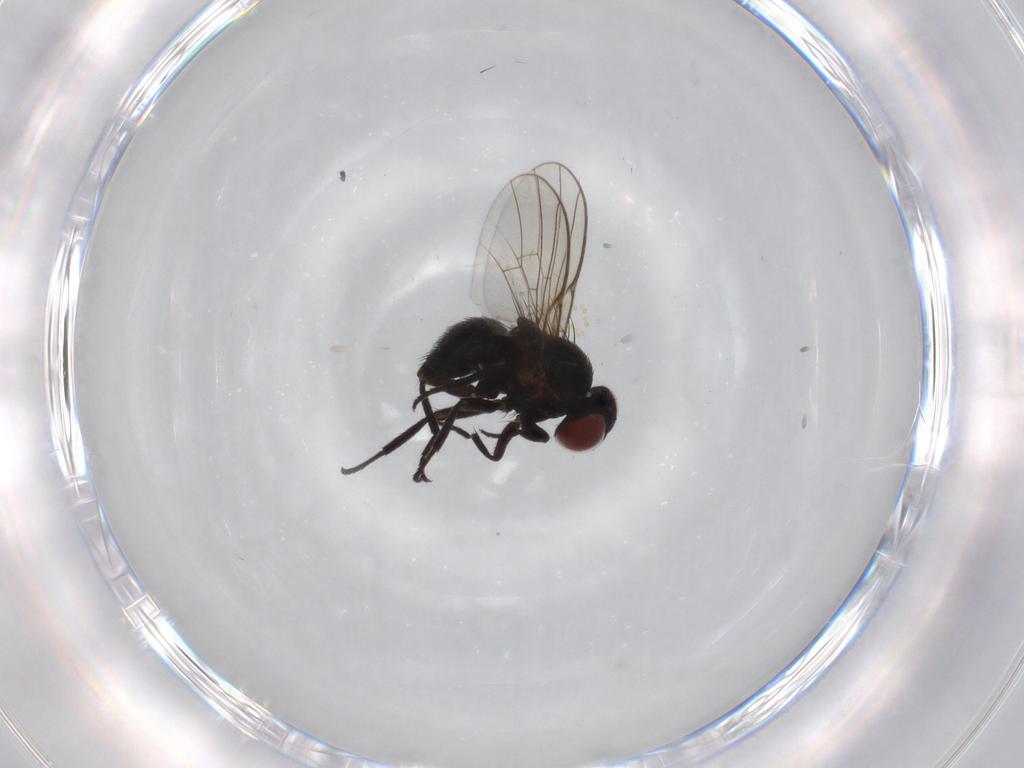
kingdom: Animalia
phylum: Arthropoda
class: Insecta
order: Diptera
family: Agromyzidae
